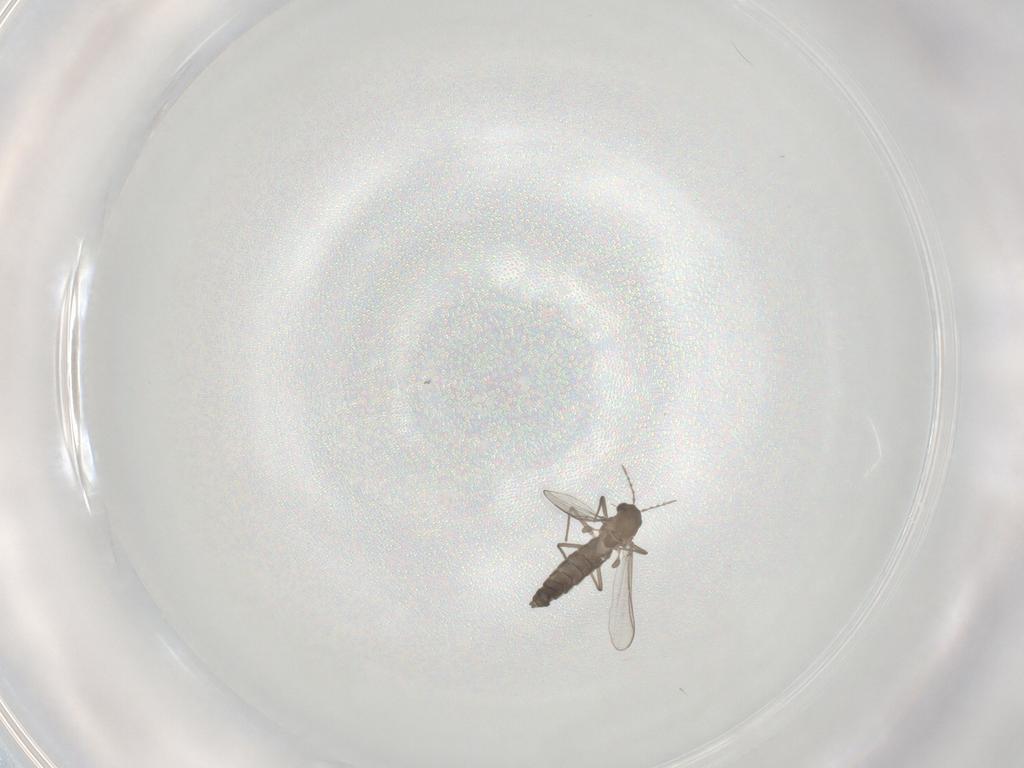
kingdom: Animalia
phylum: Arthropoda
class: Insecta
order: Diptera
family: Chironomidae
